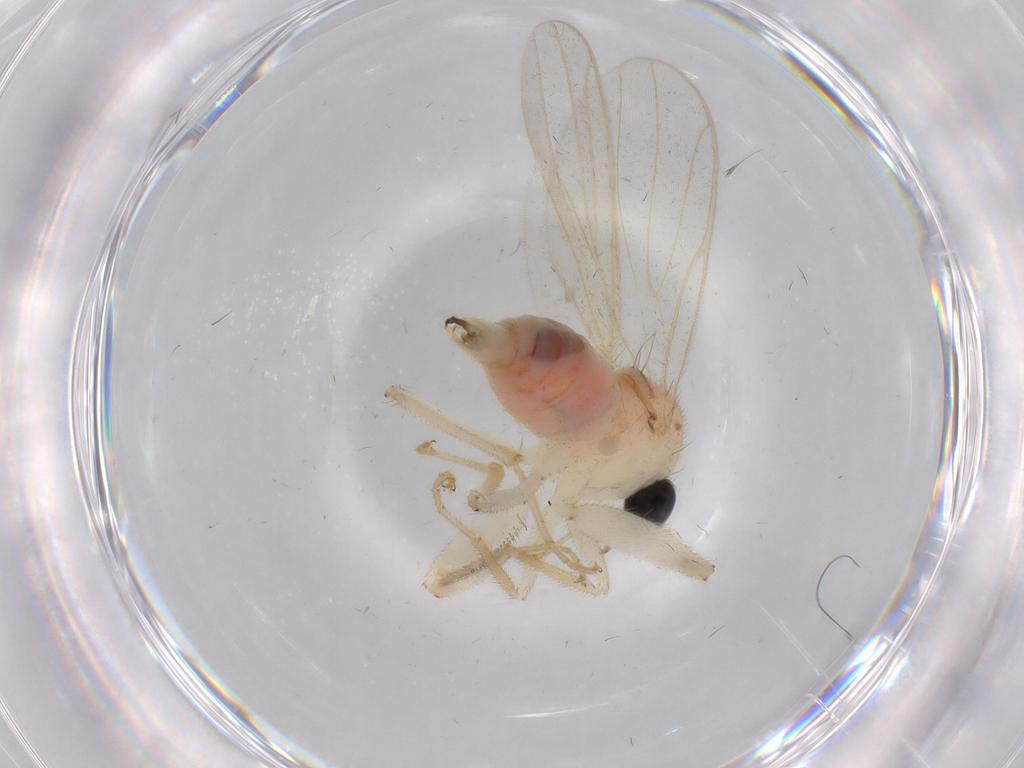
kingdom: Animalia
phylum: Arthropoda
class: Insecta
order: Diptera
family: Hybotidae
